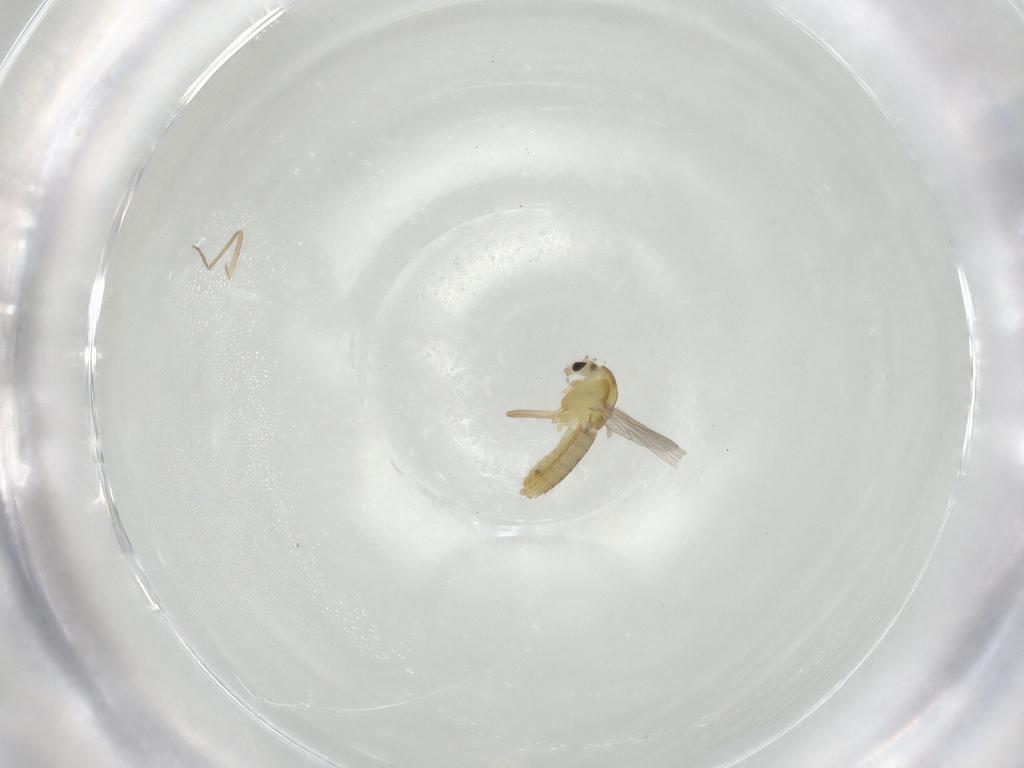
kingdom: Animalia
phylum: Arthropoda
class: Insecta
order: Diptera
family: Chironomidae
